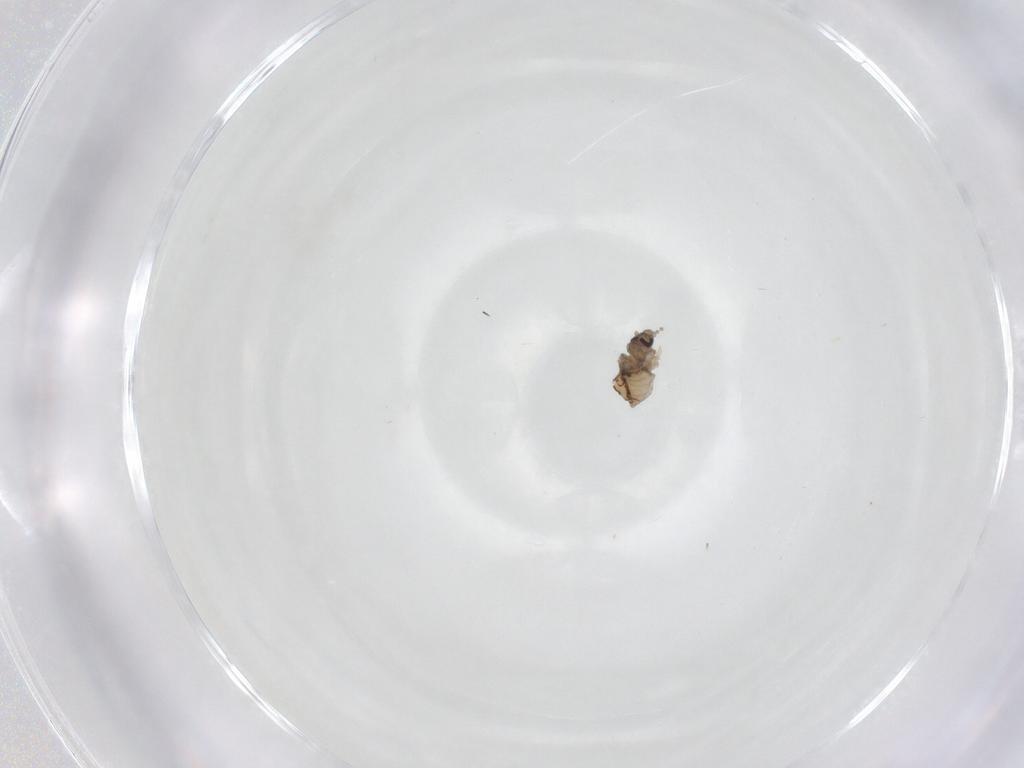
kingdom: Animalia
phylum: Arthropoda
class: Insecta
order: Diptera
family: Psychodidae
